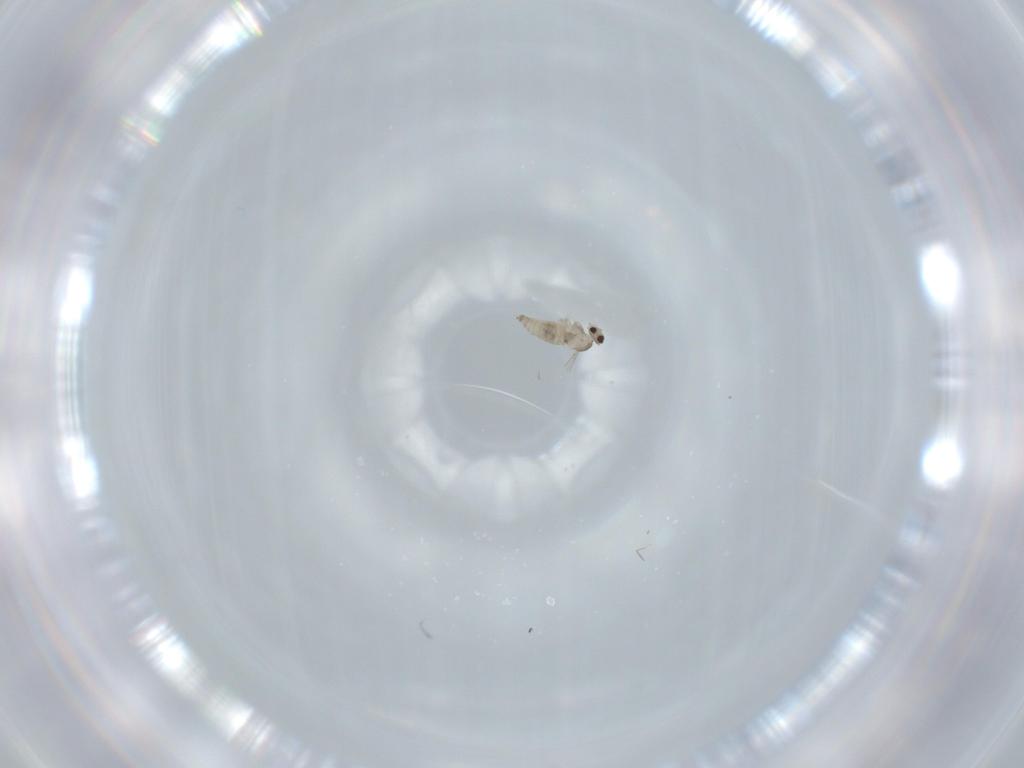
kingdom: Animalia
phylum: Arthropoda
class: Insecta
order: Diptera
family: Cecidomyiidae
